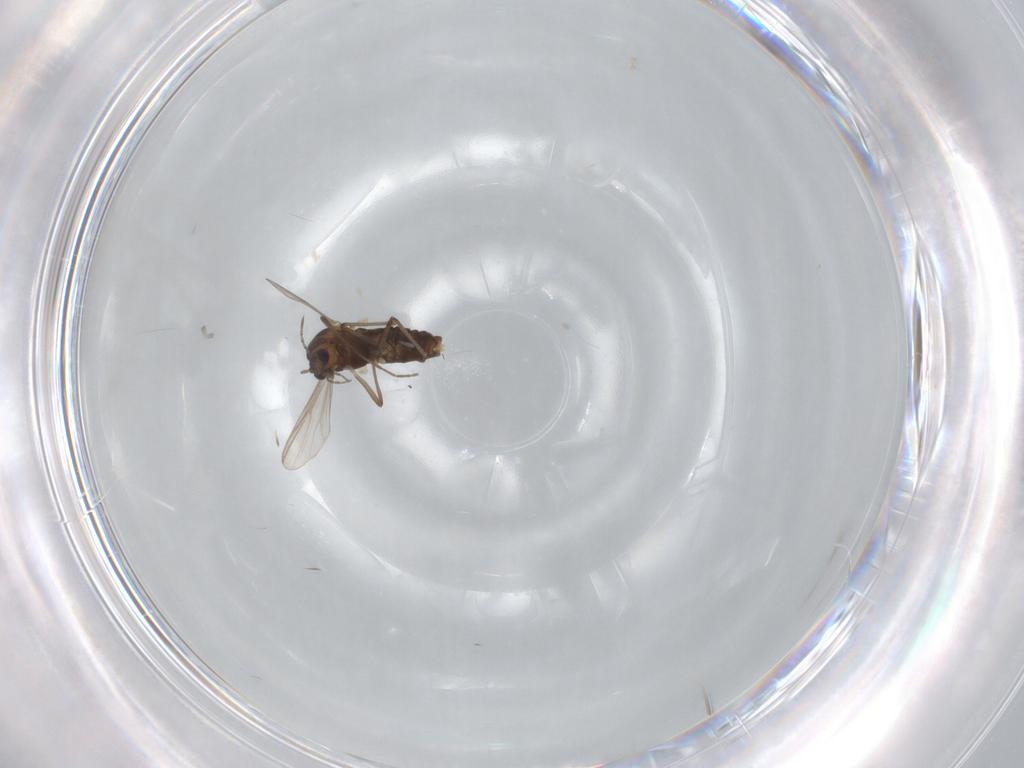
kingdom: Animalia
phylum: Arthropoda
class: Insecta
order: Diptera
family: Chironomidae
